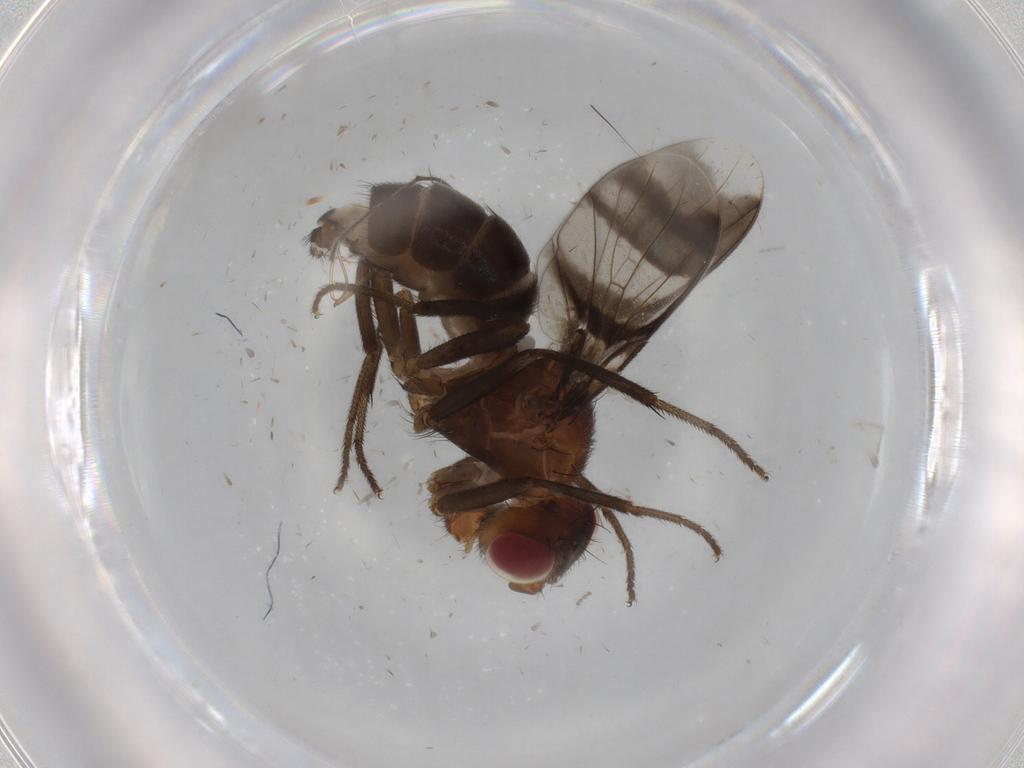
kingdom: Animalia
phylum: Arthropoda
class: Insecta
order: Diptera
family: Richardiidae
